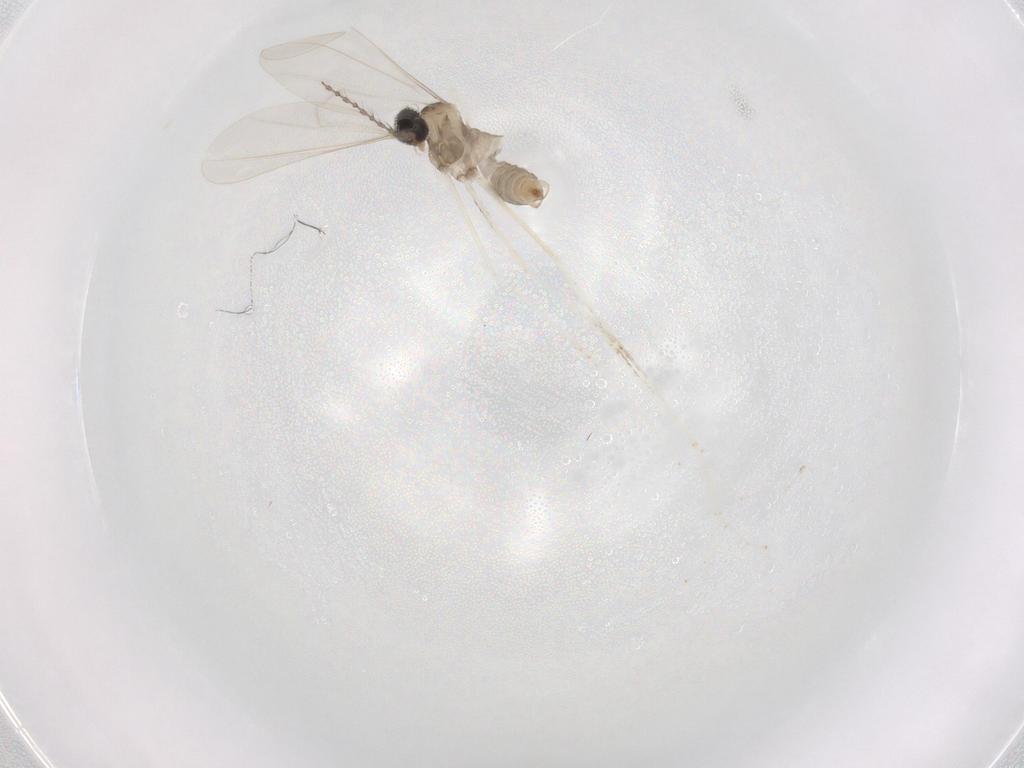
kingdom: Animalia
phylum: Arthropoda
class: Insecta
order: Diptera
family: Cecidomyiidae
